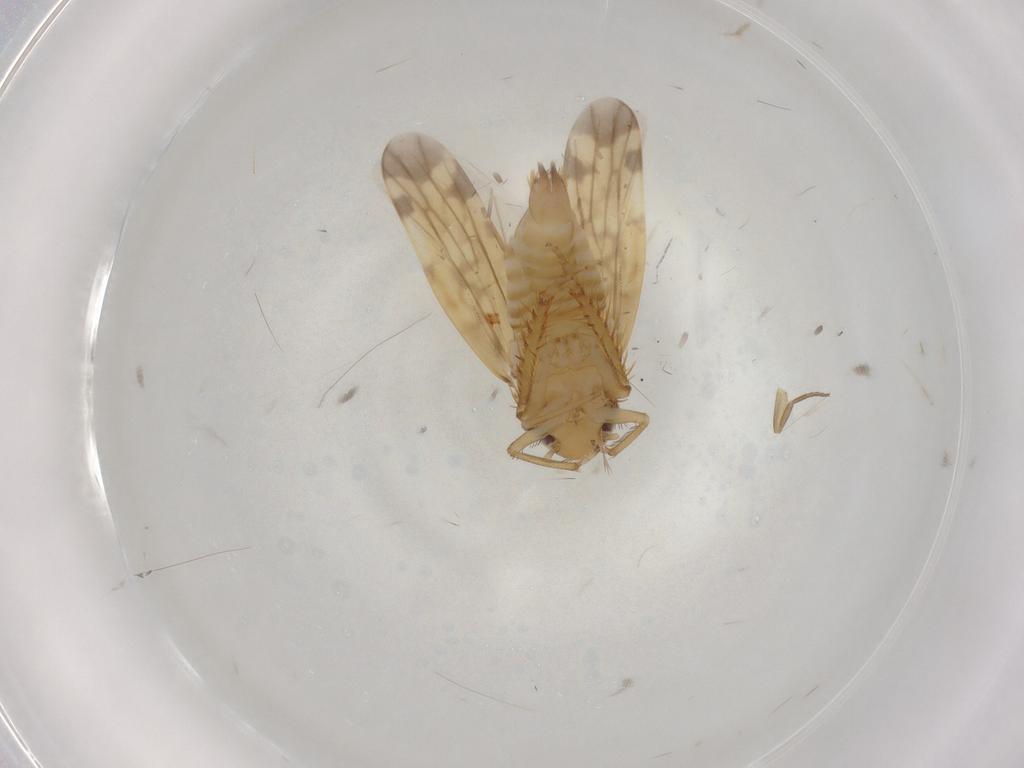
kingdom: Animalia
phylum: Arthropoda
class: Insecta
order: Hemiptera
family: Cicadellidae
